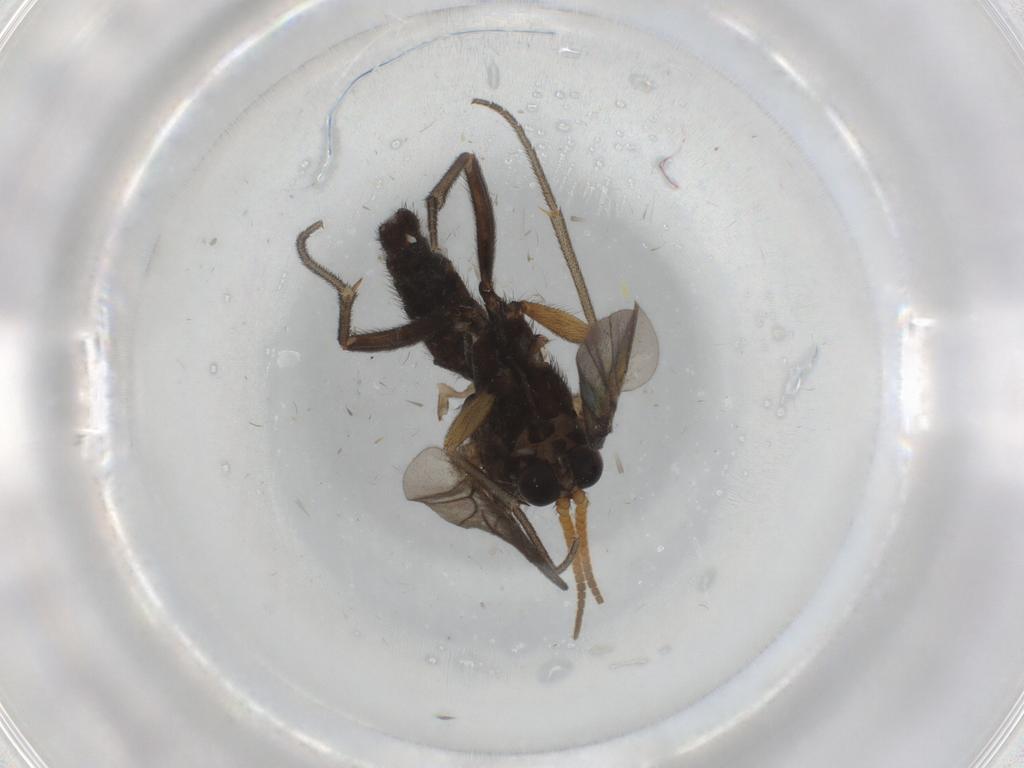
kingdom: Animalia
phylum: Arthropoda
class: Insecta
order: Diptera
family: Mycetophilidae
